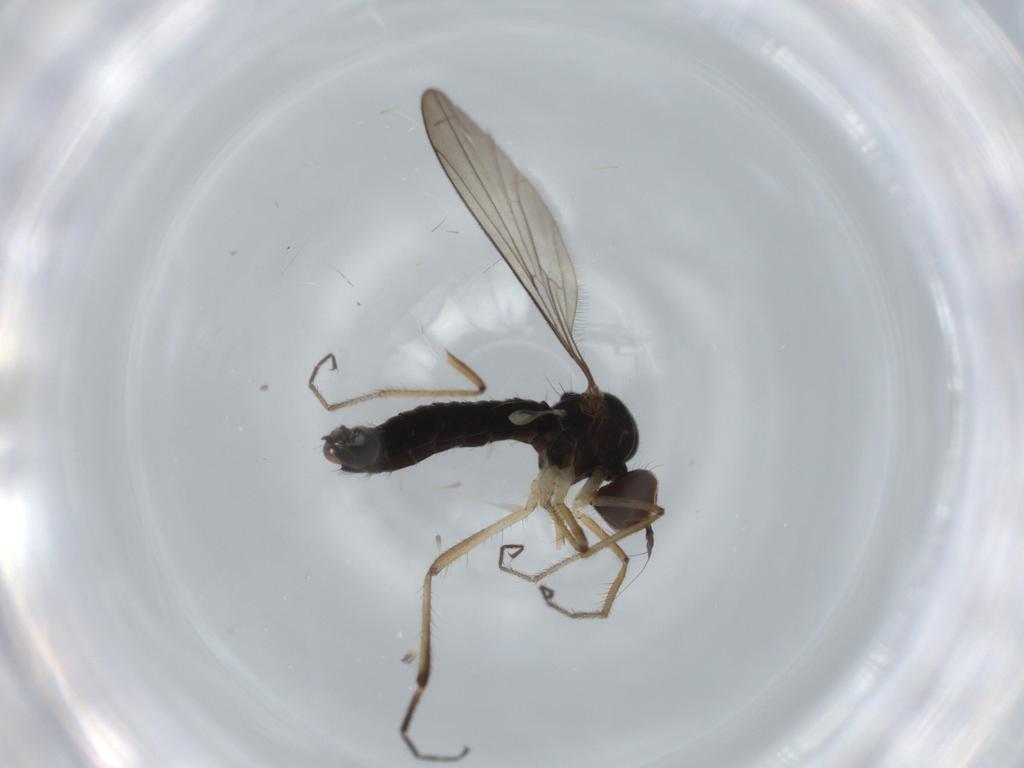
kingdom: Animalia
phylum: Arthropoda
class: Insecta
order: Diptera
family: Hybotidae
